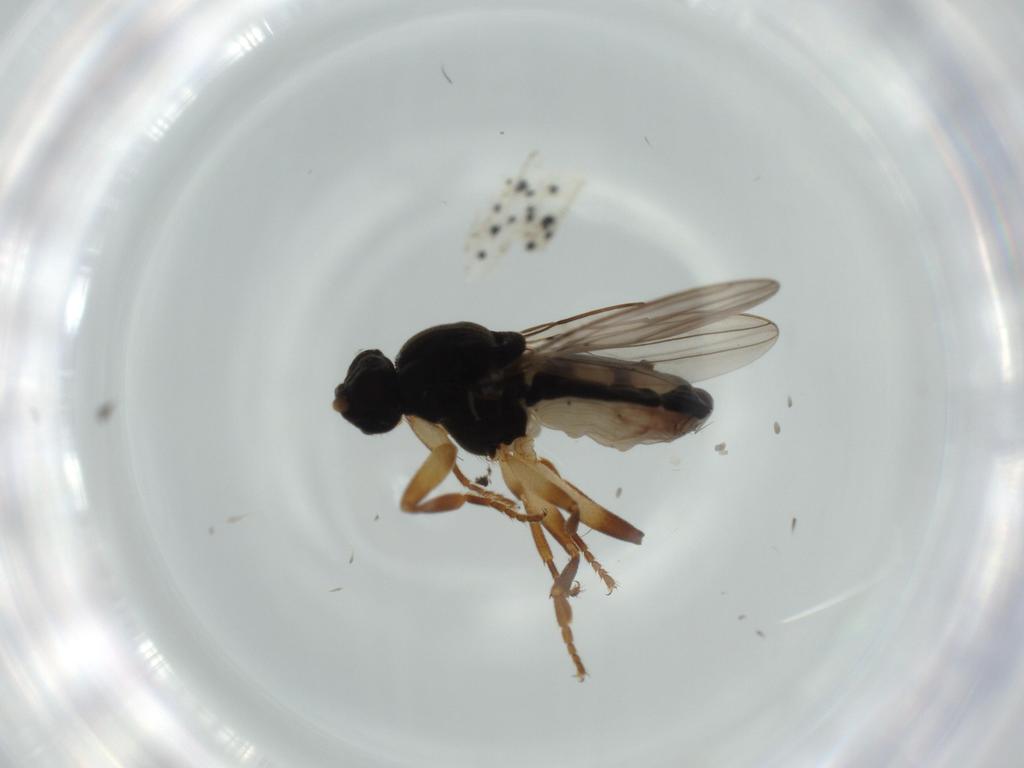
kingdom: Animalia
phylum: Arthropoda
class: Insecta
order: Diptera
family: Sphaeroceridae
